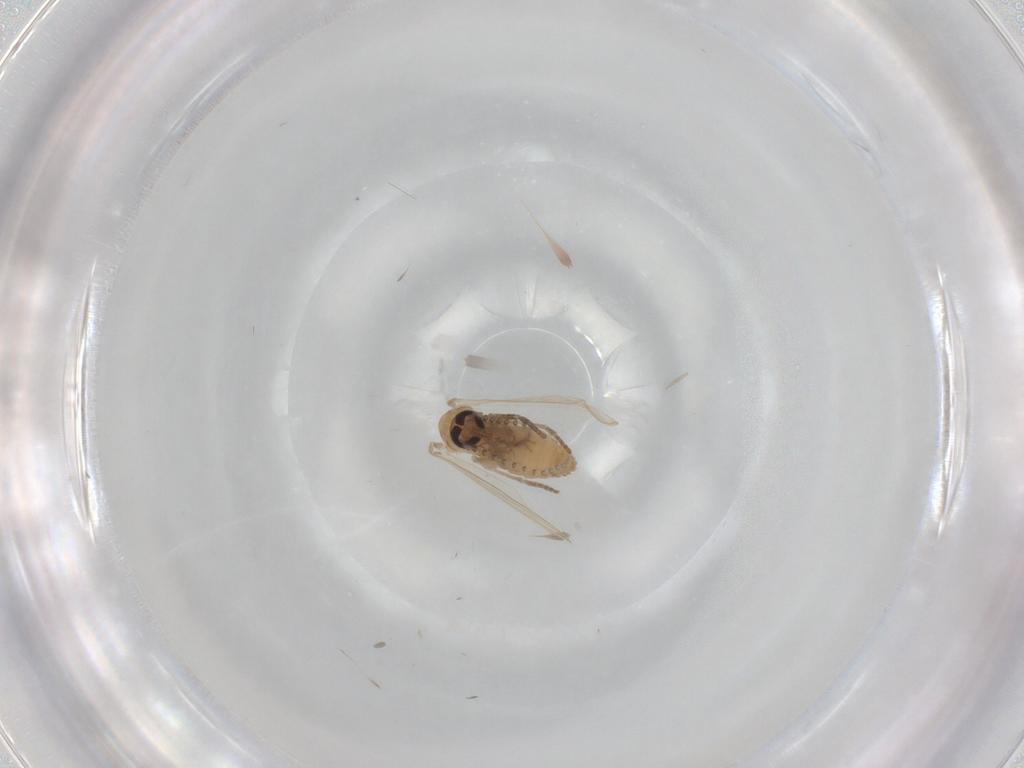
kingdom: Animalia
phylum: Arthropoda
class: Insecta
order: Diptera
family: Psychodidae
